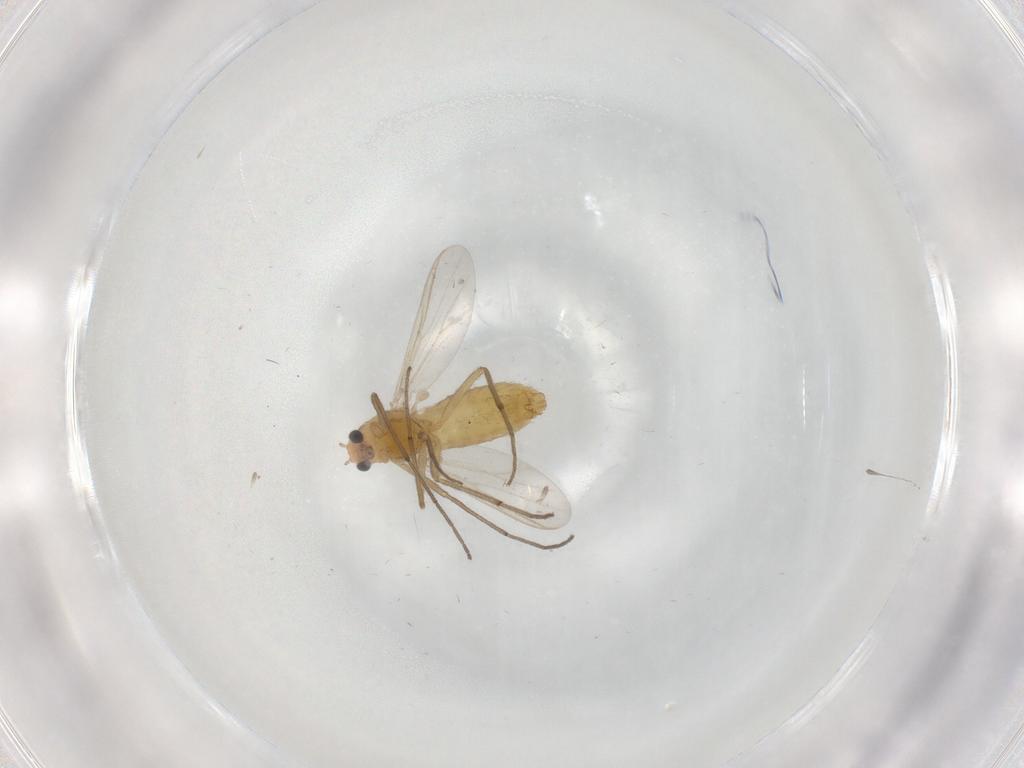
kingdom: Animalia
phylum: Arthropoda
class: Insecta
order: Diptera
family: Chironomidae
